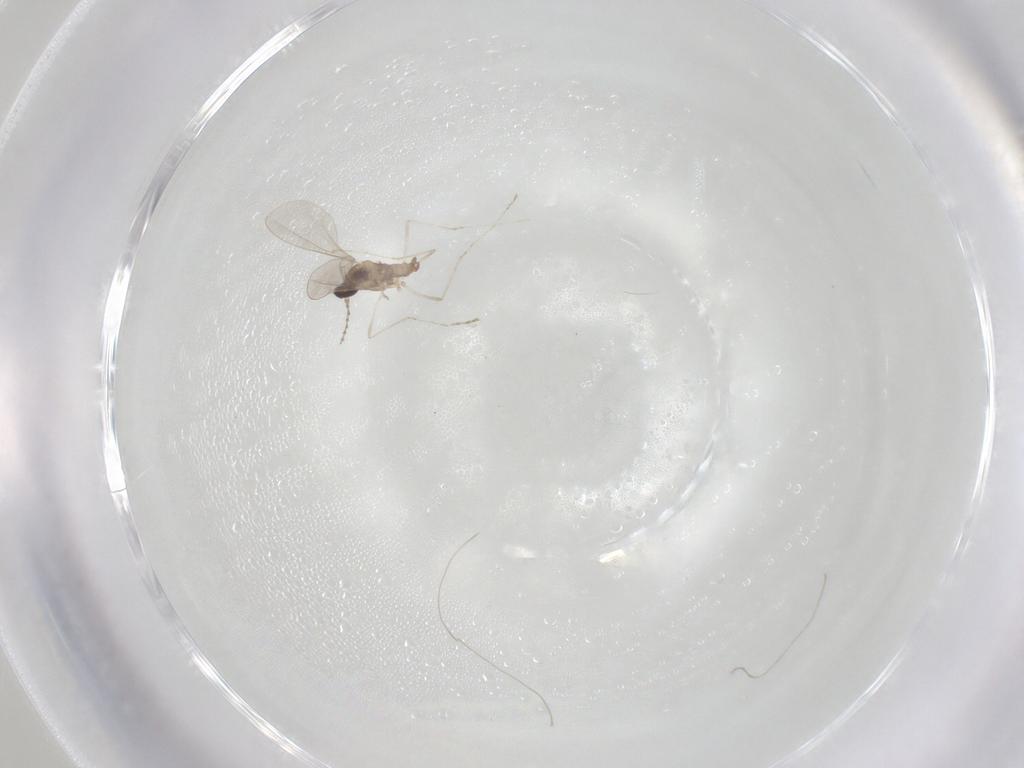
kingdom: Animalia
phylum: Arthropoda
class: Insecta
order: Diptera
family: Cecidomyiidae
